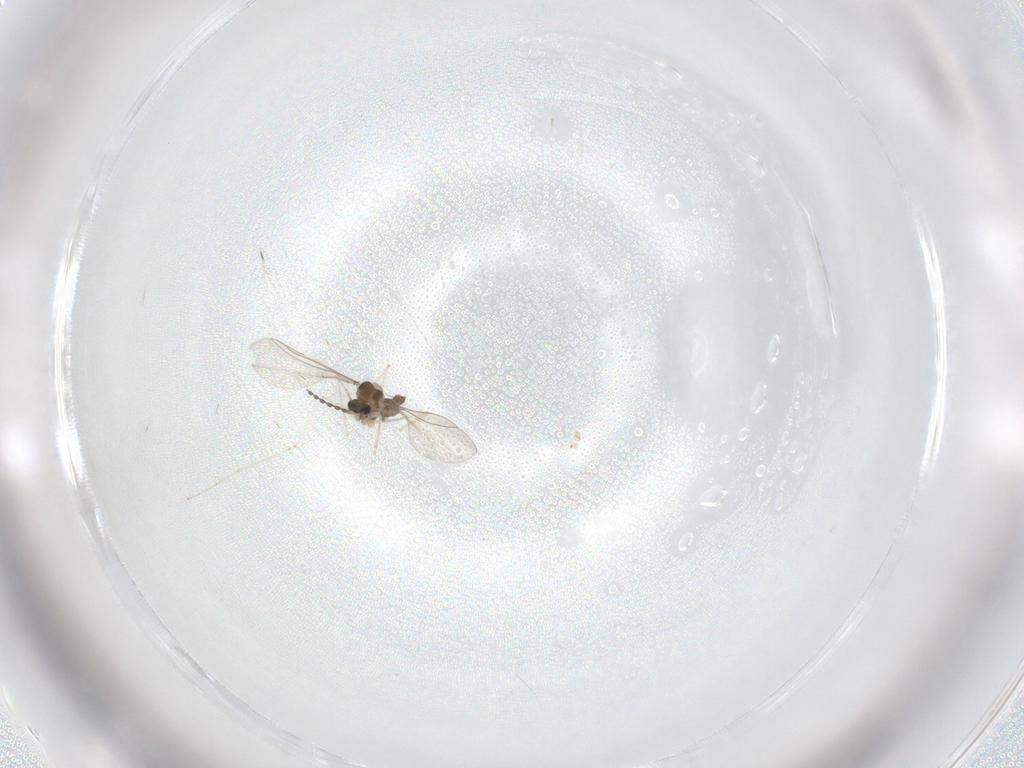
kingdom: Animalia
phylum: Arthropoda
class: Insecta
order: Diptera
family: Cecidomyiidae
